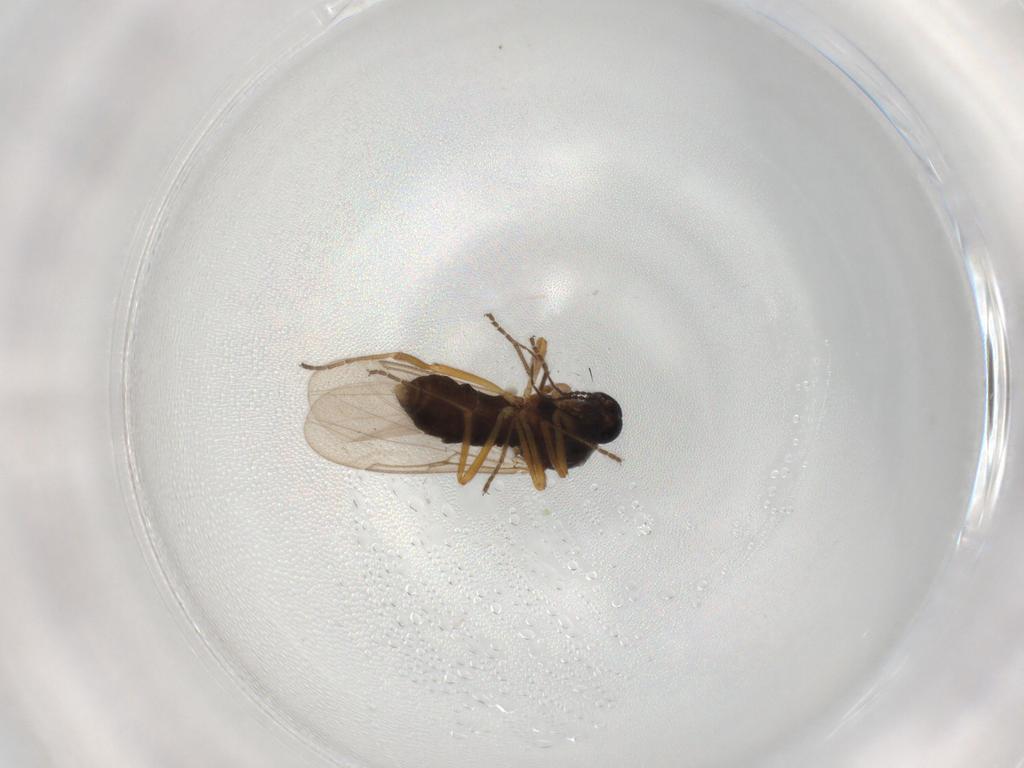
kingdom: Animalia
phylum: Arthropoda
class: Insecta
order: Diptera
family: Ceratopogonidae
